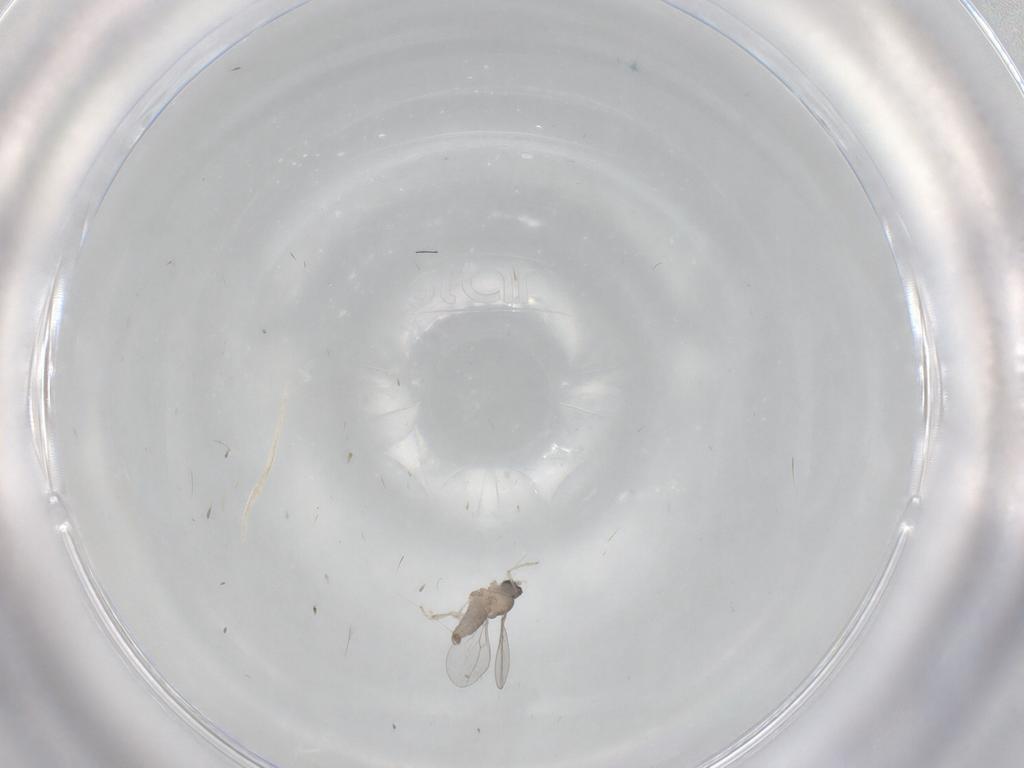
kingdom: Animalia
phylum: Arthropoda
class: Insecta
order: Diptera
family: Cecidomyiidae
